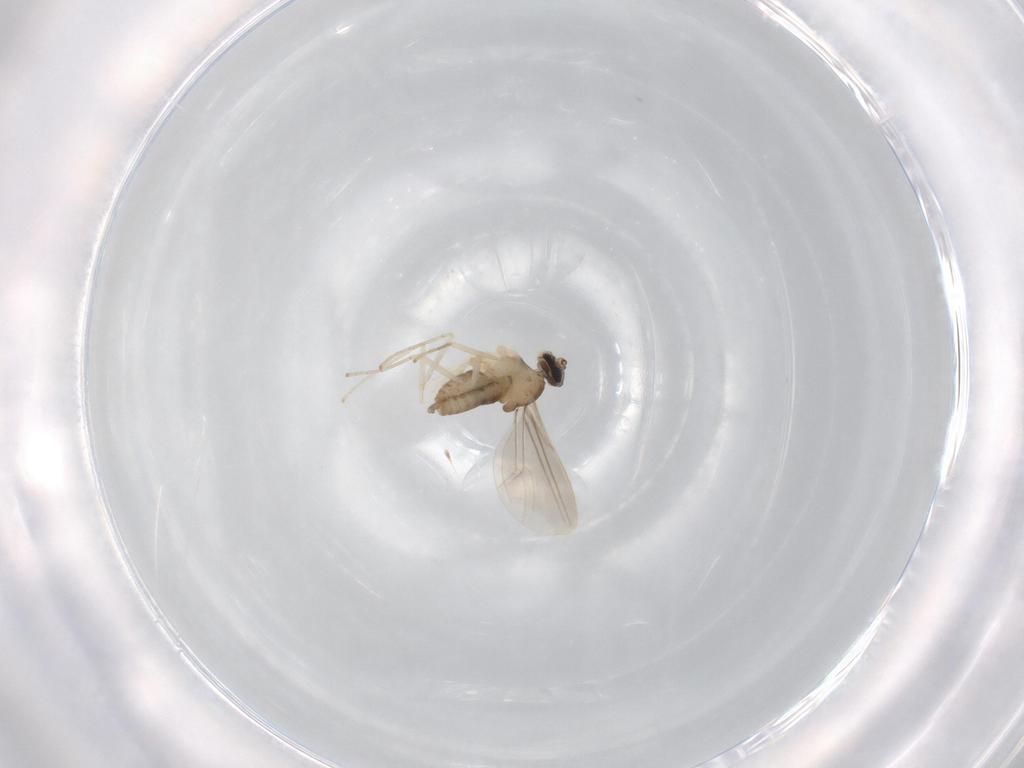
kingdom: Animalia
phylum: Arthropoda
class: Insecta
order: Diptera
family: Cecidomyiidae
